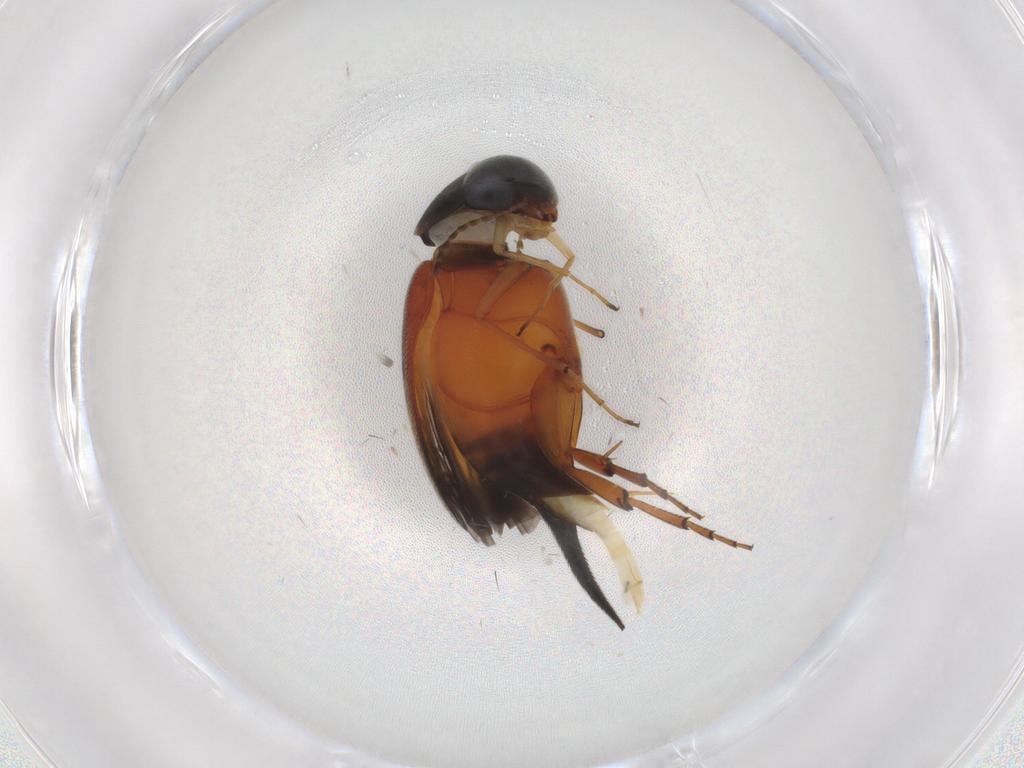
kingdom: Animalia
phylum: Arthropoda
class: Insecta
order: Coleoptera
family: Mordellidae
